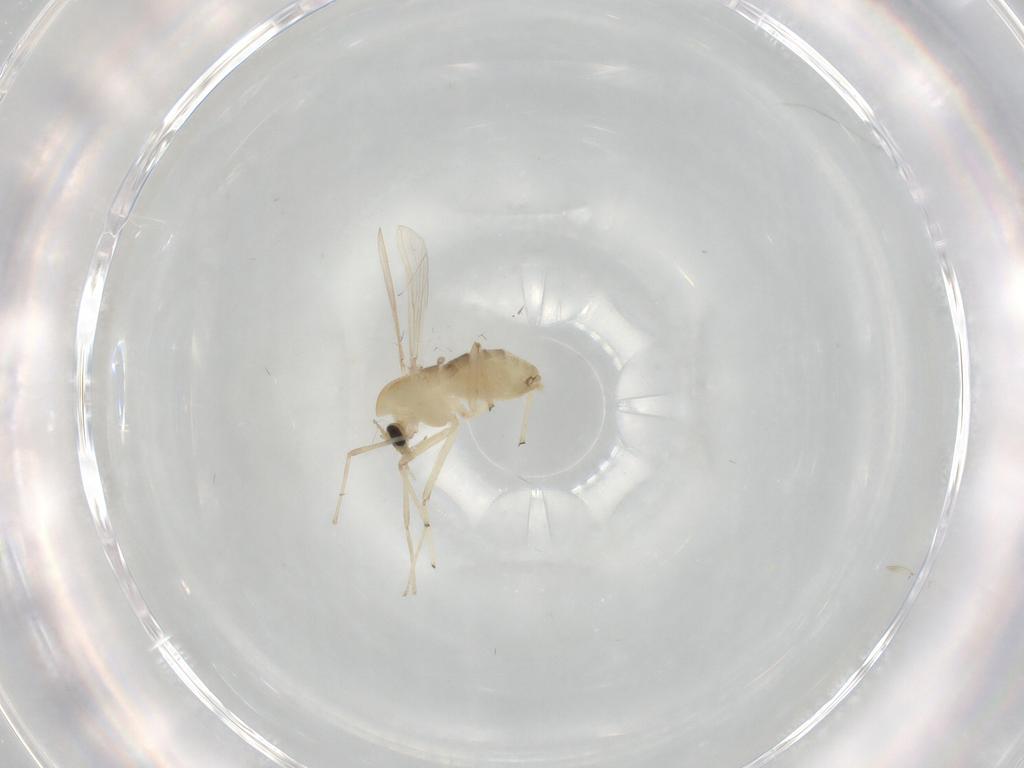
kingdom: Animalia
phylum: Arthropoda
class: Insecta
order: Diptera
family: Chironomidae
